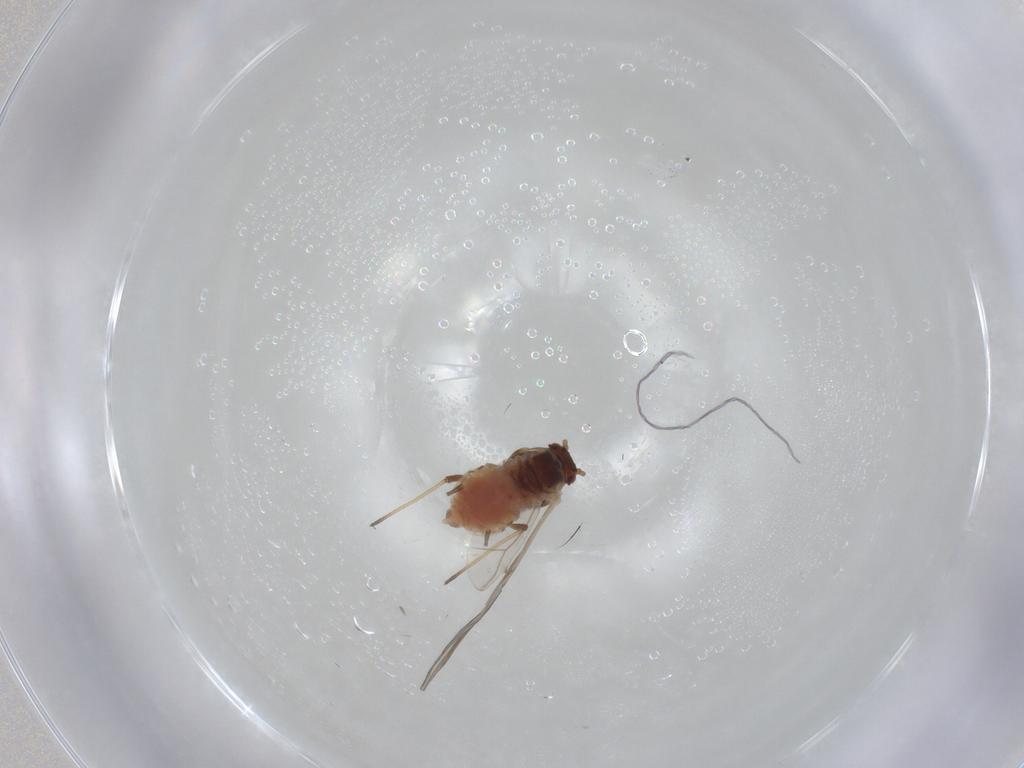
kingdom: Animalia
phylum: Arthropoda
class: Insecta
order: Hemiptera
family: Aphididae
